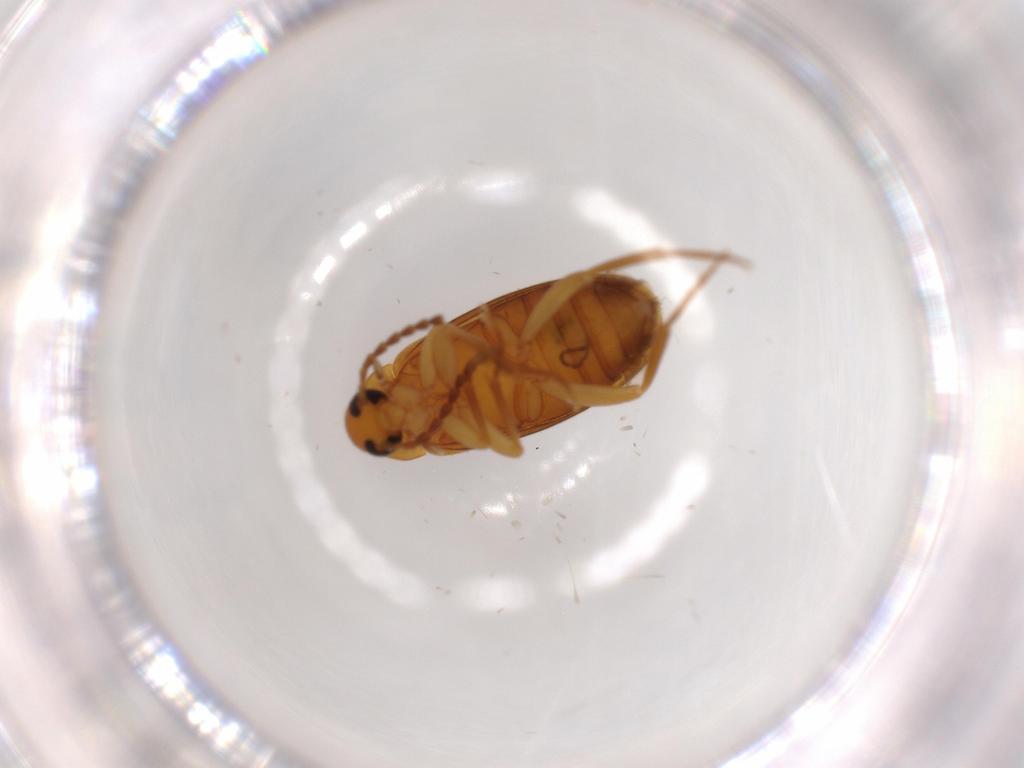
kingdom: Animalia
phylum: Arthropoda
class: Insecta
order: Coleoptera
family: Scraptiidae
